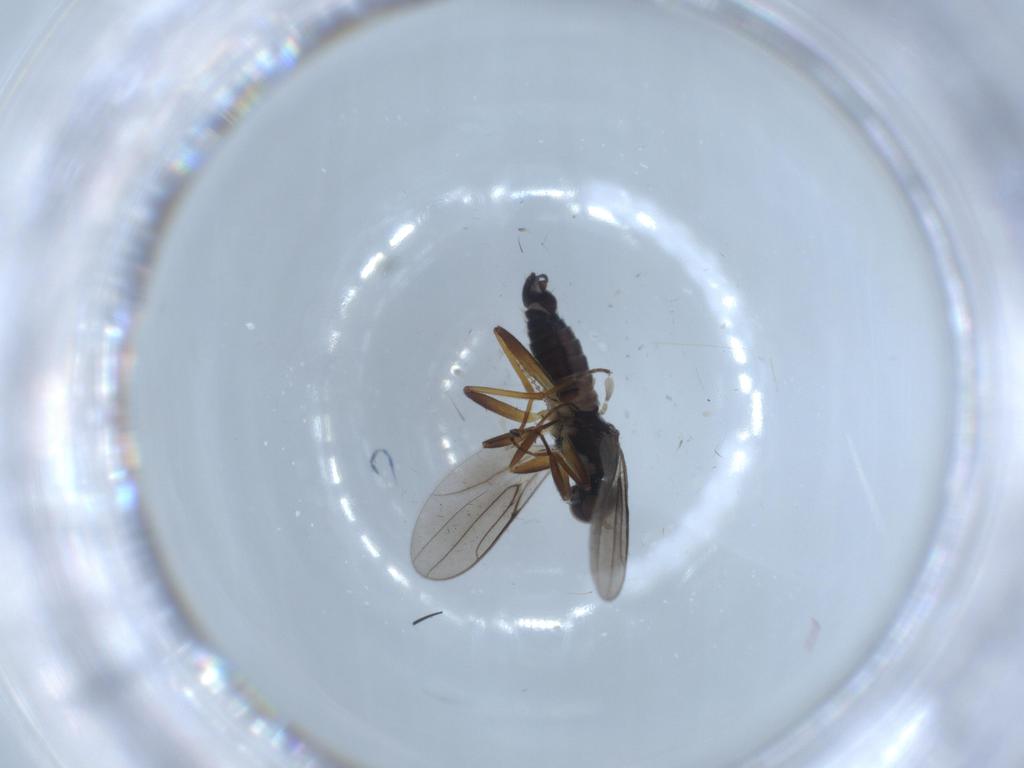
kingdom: Animalia
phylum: Arthropoda
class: Insecta
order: Diptera
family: Hybotidae
